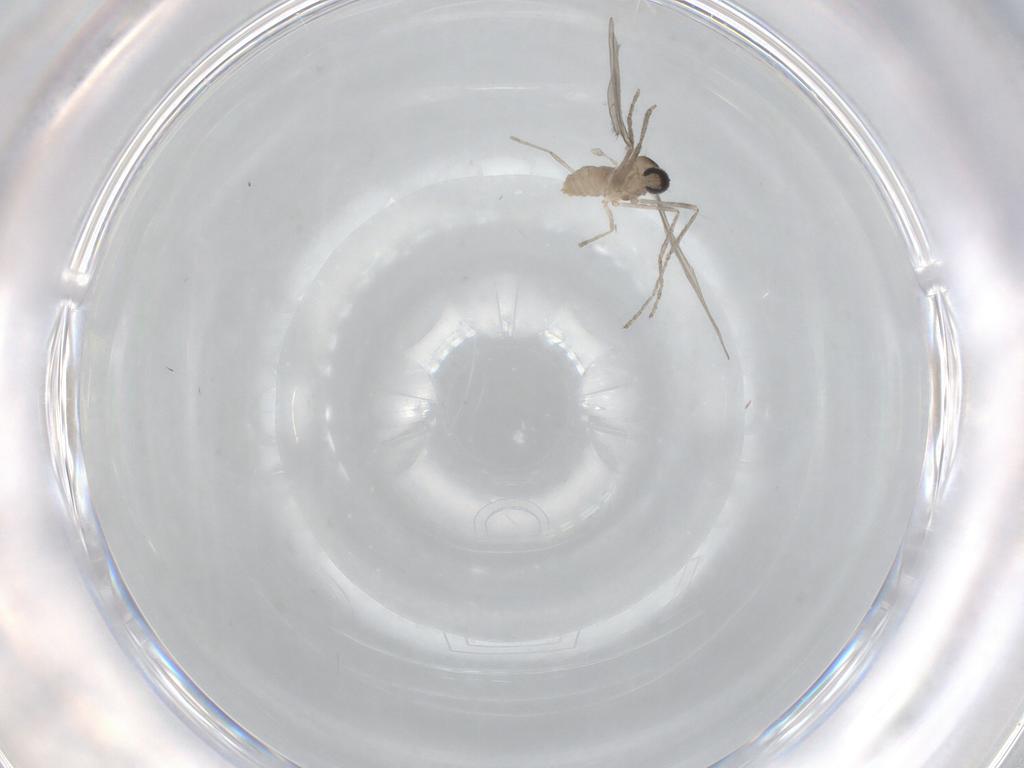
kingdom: Animalia
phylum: Arthropoda
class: Insecta
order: Diptera
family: Cecidomyiidae
